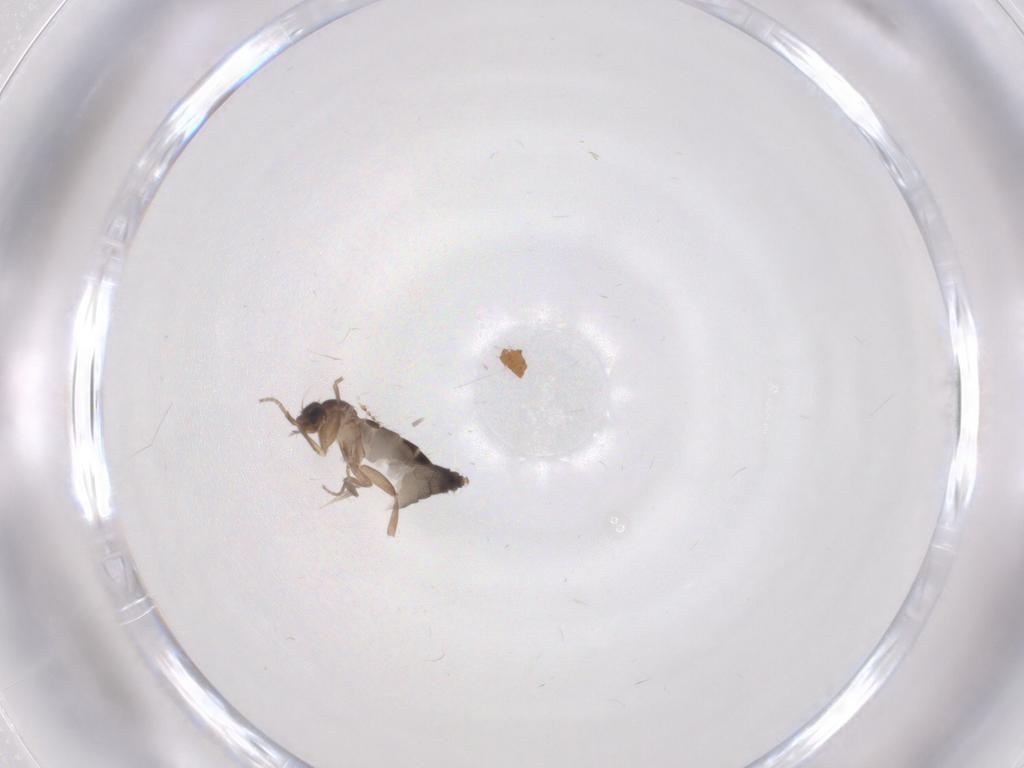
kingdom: Animalia
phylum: Arthropoda
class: Insecta
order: Diptera
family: Phoridae
